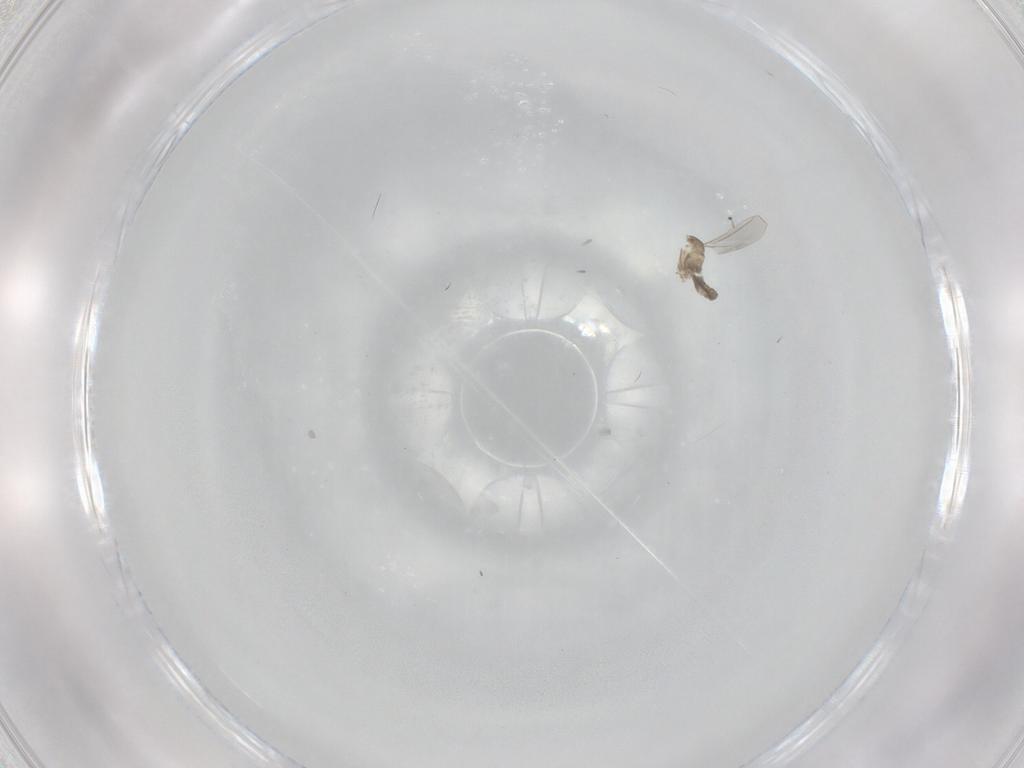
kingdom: Animalia
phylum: Arthropoda
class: Insecta
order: Diptera
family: Cecidomyiidae
